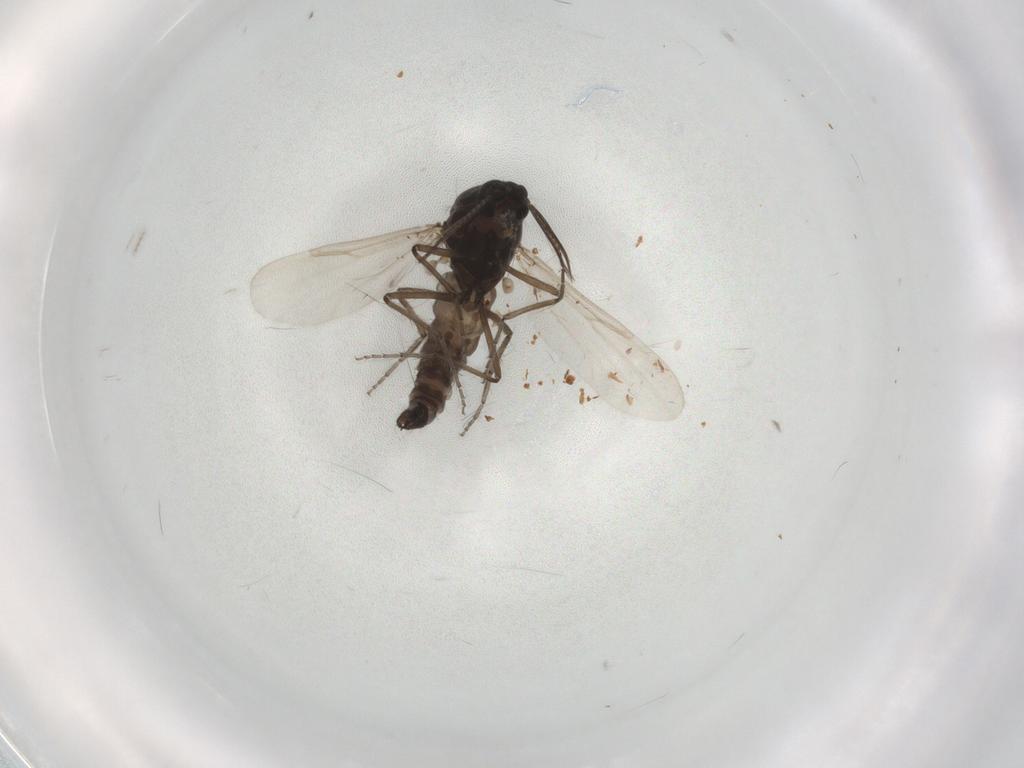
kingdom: Animalia
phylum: Arthropoda
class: Insecta
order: Diptera
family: Ceratopogonidae
